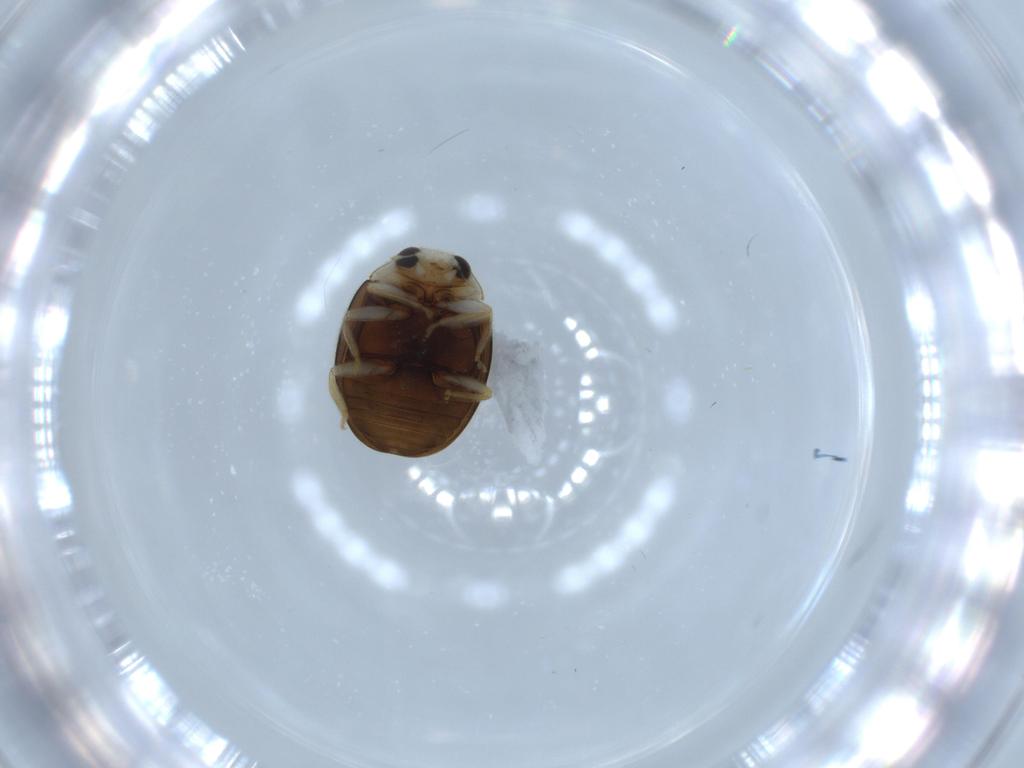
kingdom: Animalia
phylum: Arthropoda
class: Insecta
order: Coleoptera
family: Coccinellidae
